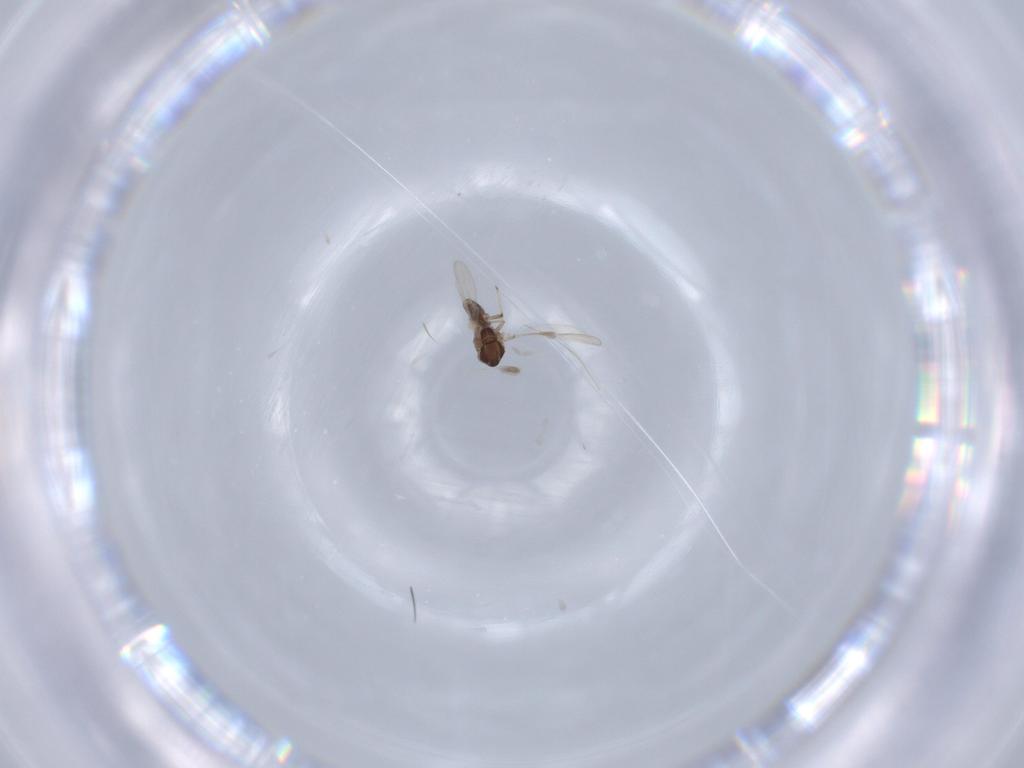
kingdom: Animalia
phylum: Arthropoda
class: Insecta
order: Diptera
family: Chironomidae
